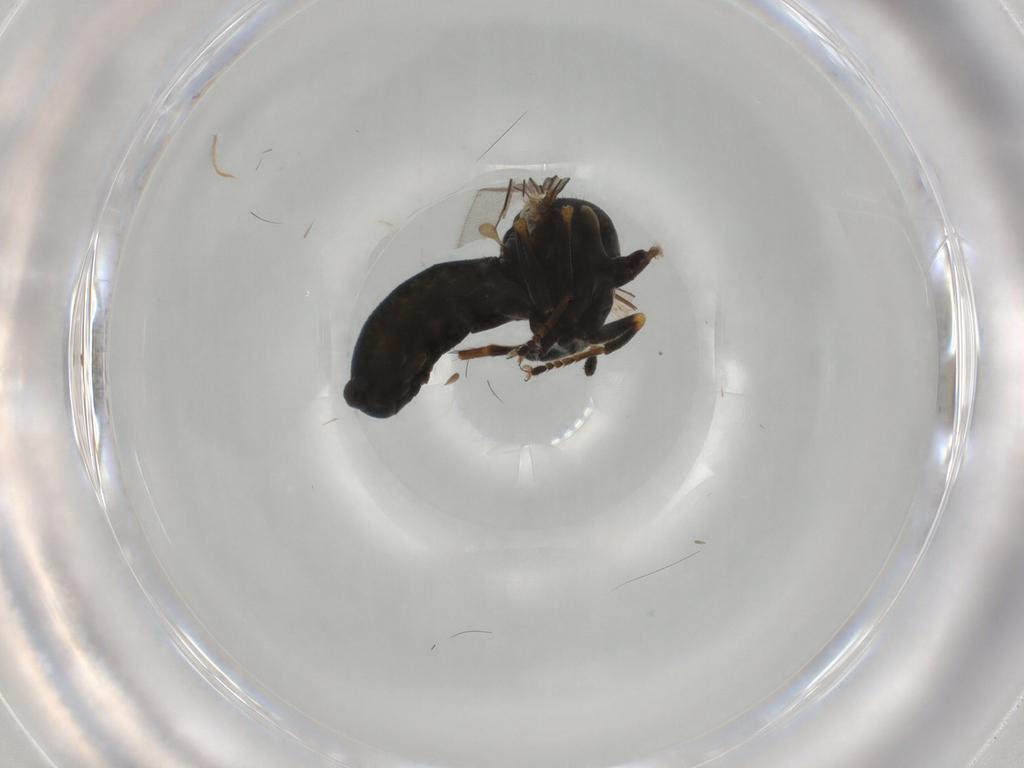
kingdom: Animalia
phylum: Arthropoda
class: Insecta
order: Diptera
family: Pipunculidae
